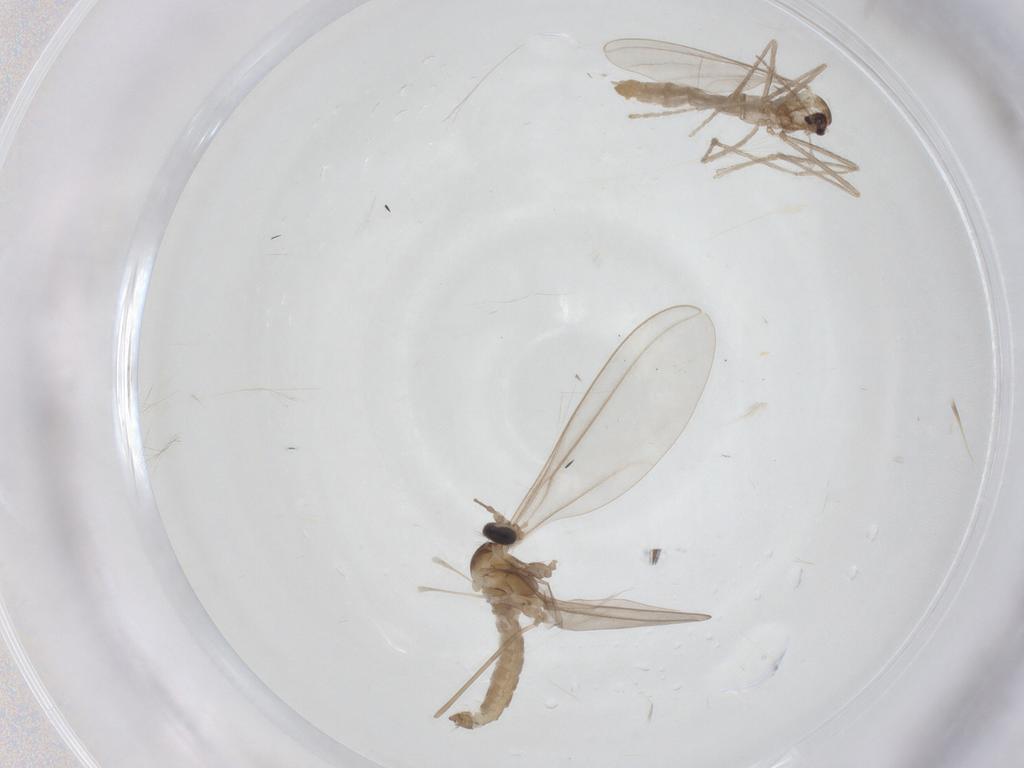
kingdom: Animalia
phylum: Arthropoda
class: Insecta
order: Diptera
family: Cecidomyiidae
